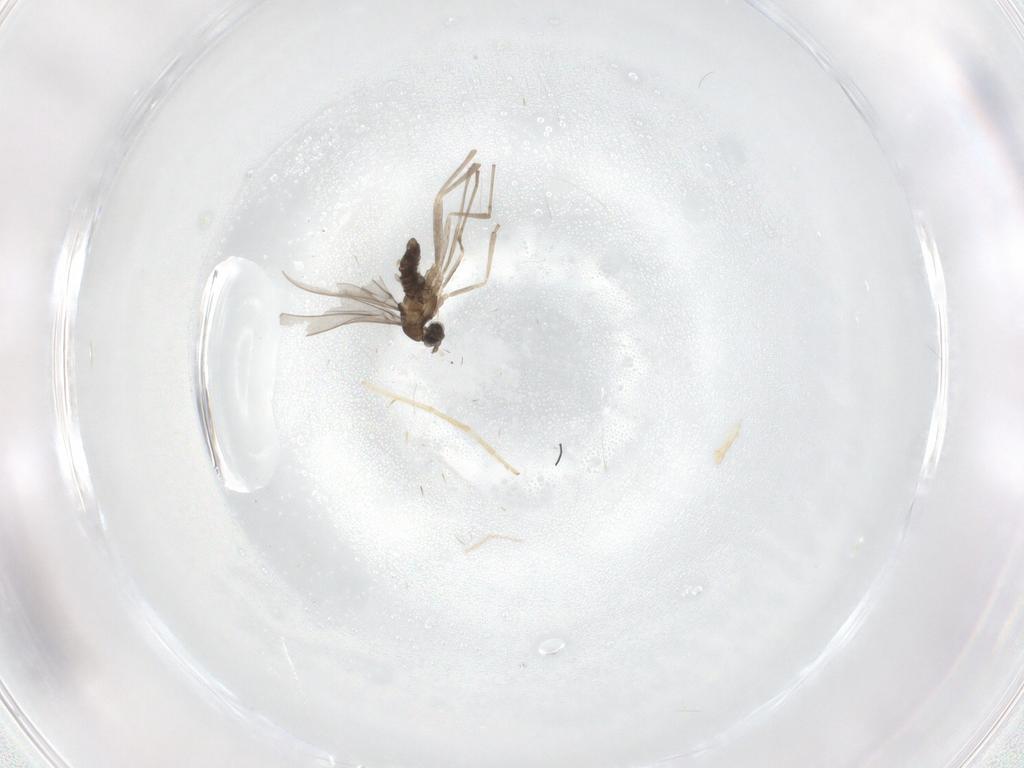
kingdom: Animalia
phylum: Arthropoda
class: Insecta
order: Diptera
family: Chironomidae
